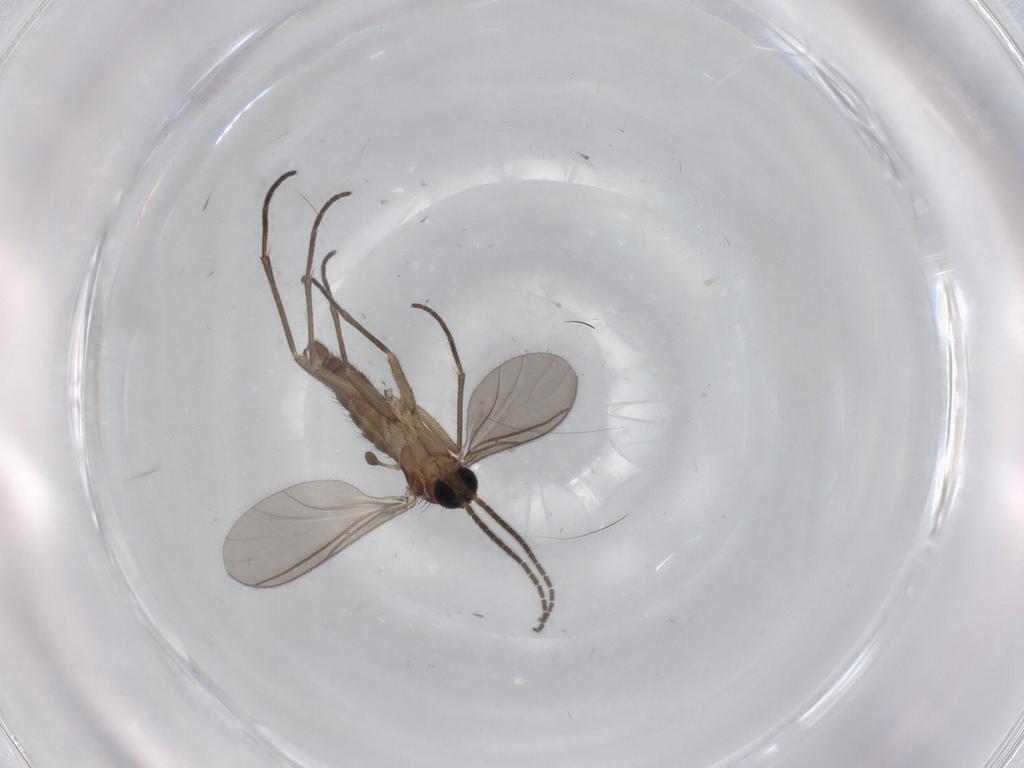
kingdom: Animalia
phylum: Arthropoda
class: Insecta
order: Diptera
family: Sciaridae
